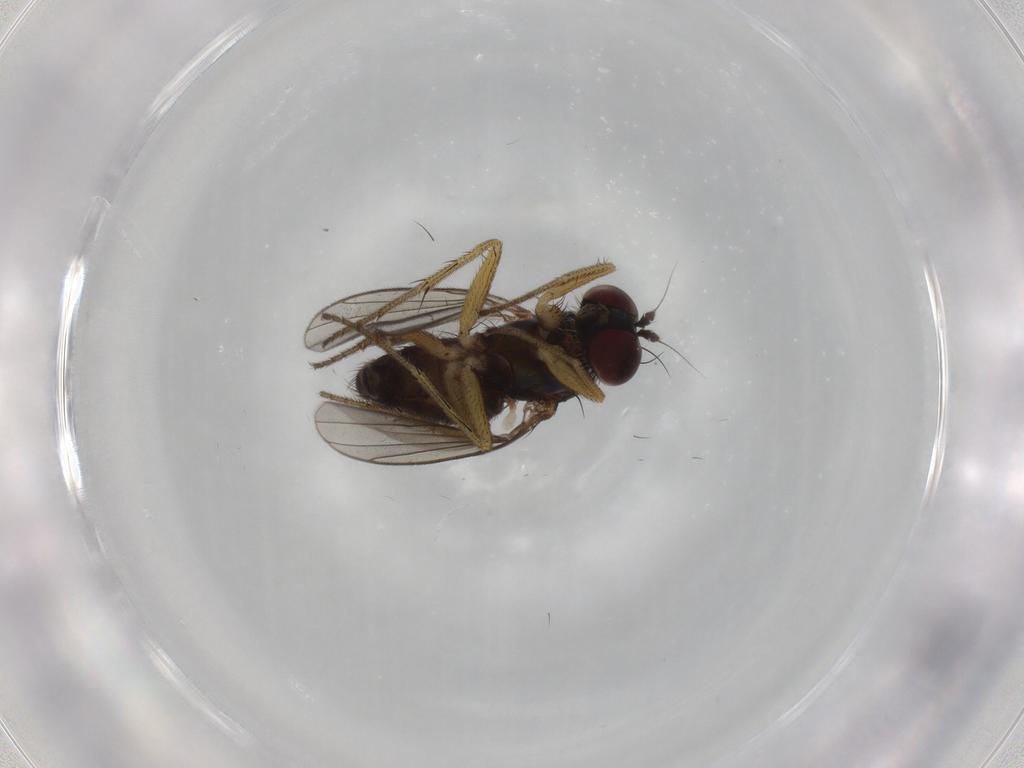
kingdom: Animalia
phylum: Arthropoda
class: Insecta
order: Diptera
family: Dolichopodidae
